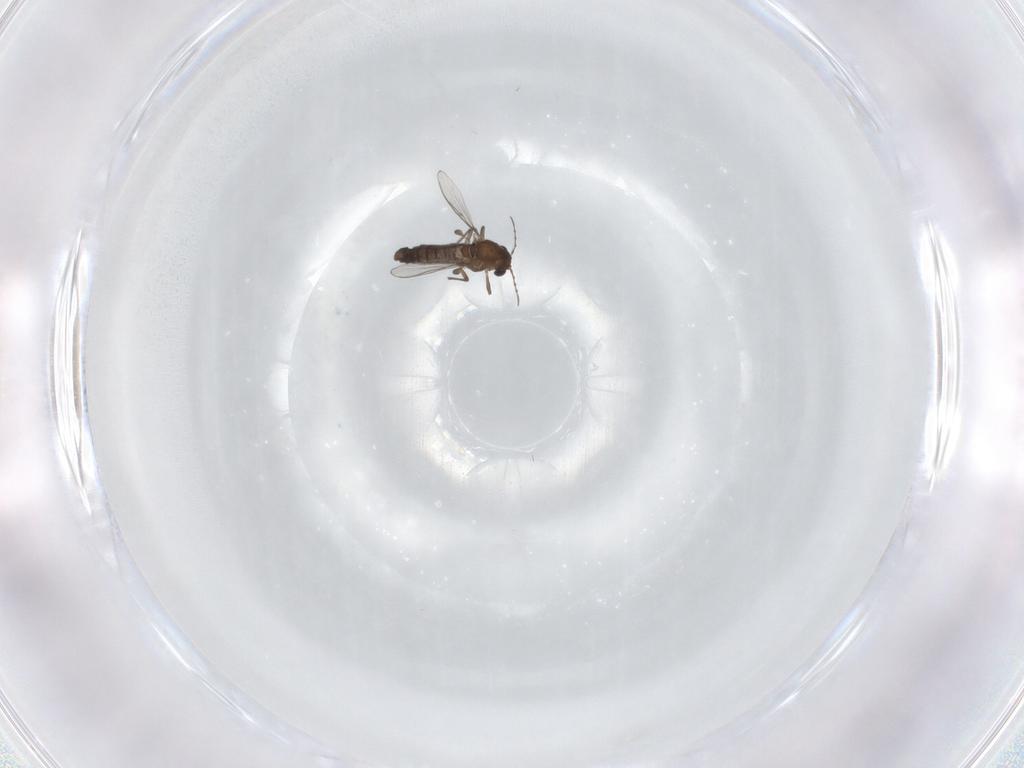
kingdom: Animalia
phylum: Arthropoda
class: Insecta
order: Diptera
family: Chironomidae
